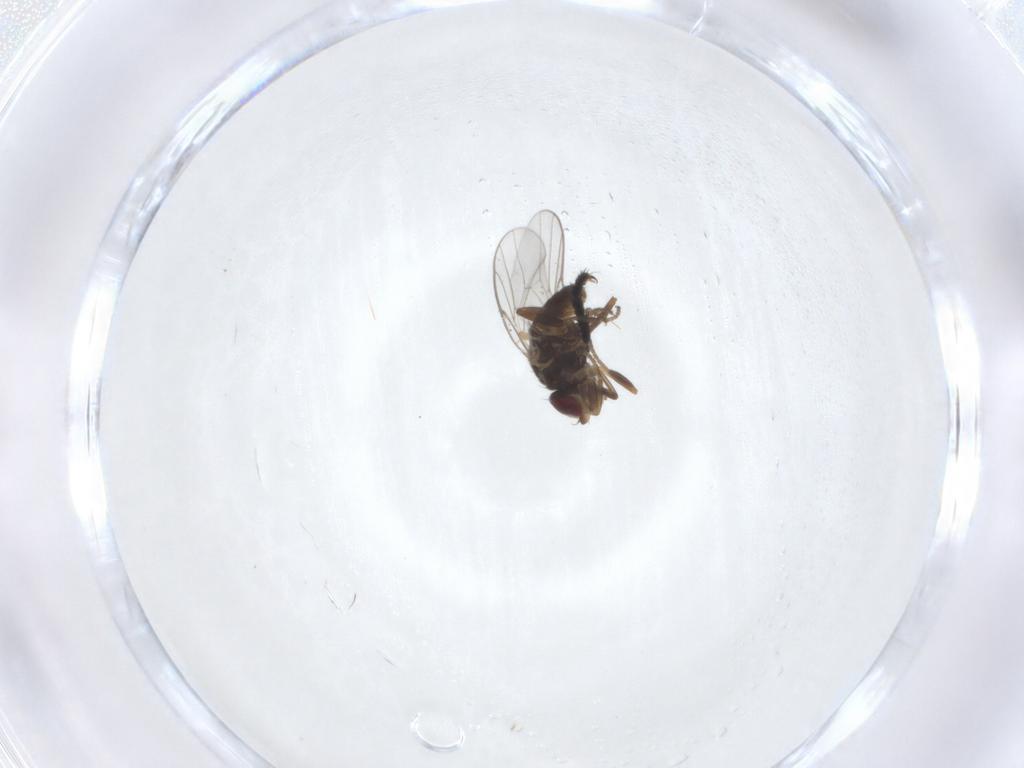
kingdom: Animalia
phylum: Arthropoda
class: Insecta
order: Diptera
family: Chloropidae
